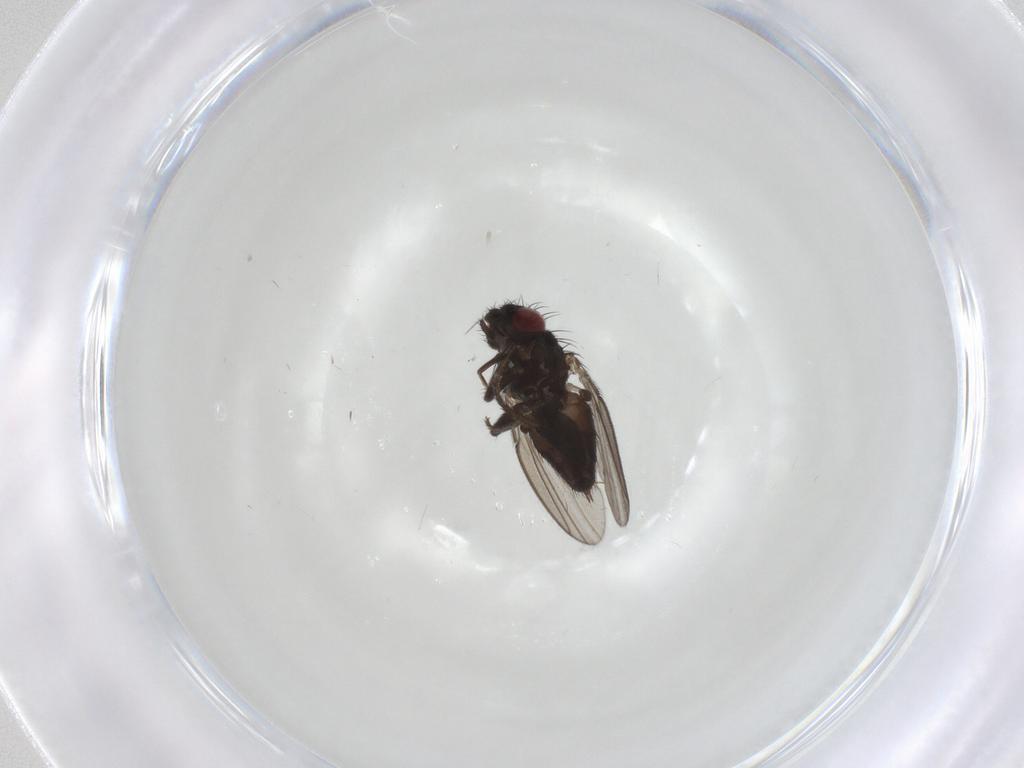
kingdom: Animalia
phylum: Arthropoda
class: Insecta
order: Diptera
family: Milichiidae
